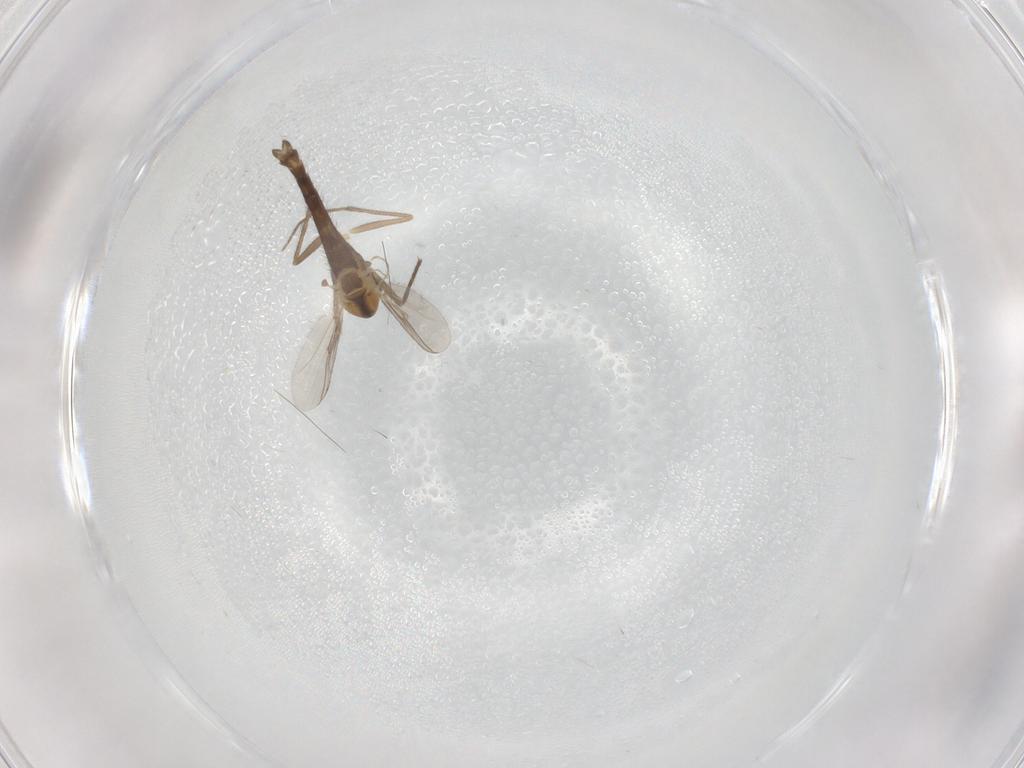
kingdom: Animalia
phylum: Arthropoda
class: Insecta
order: Diptera
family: Chironomidae
